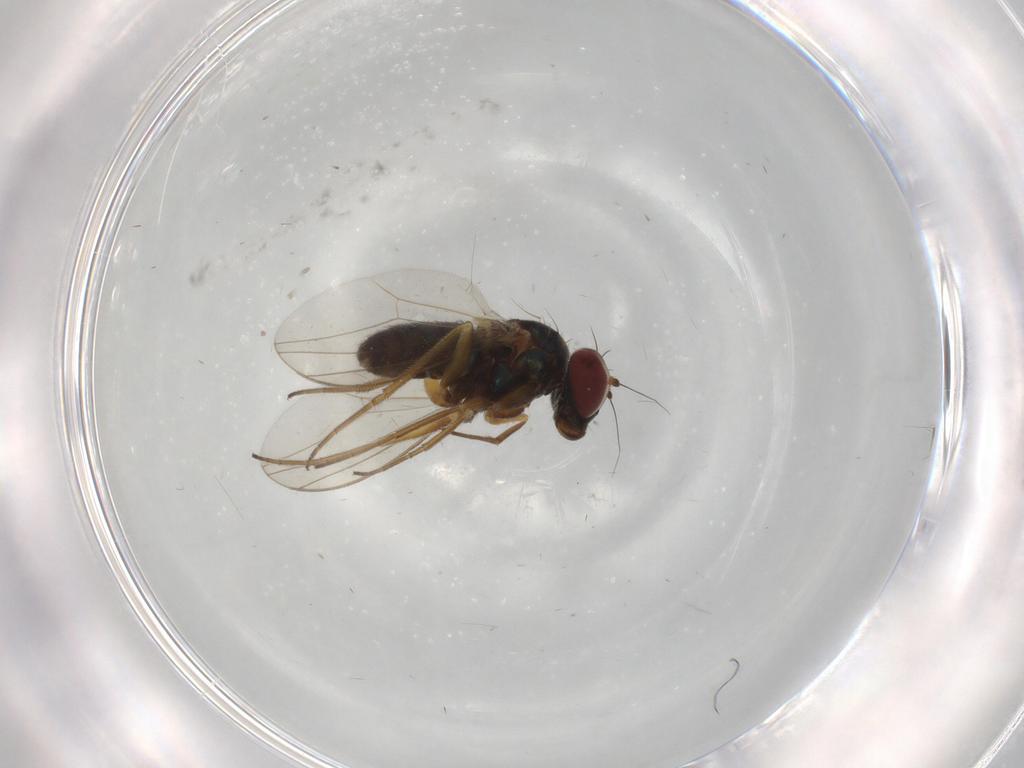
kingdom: Animalia
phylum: Arthropoda
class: Insecta
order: Diptera
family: Dolichopodidae
